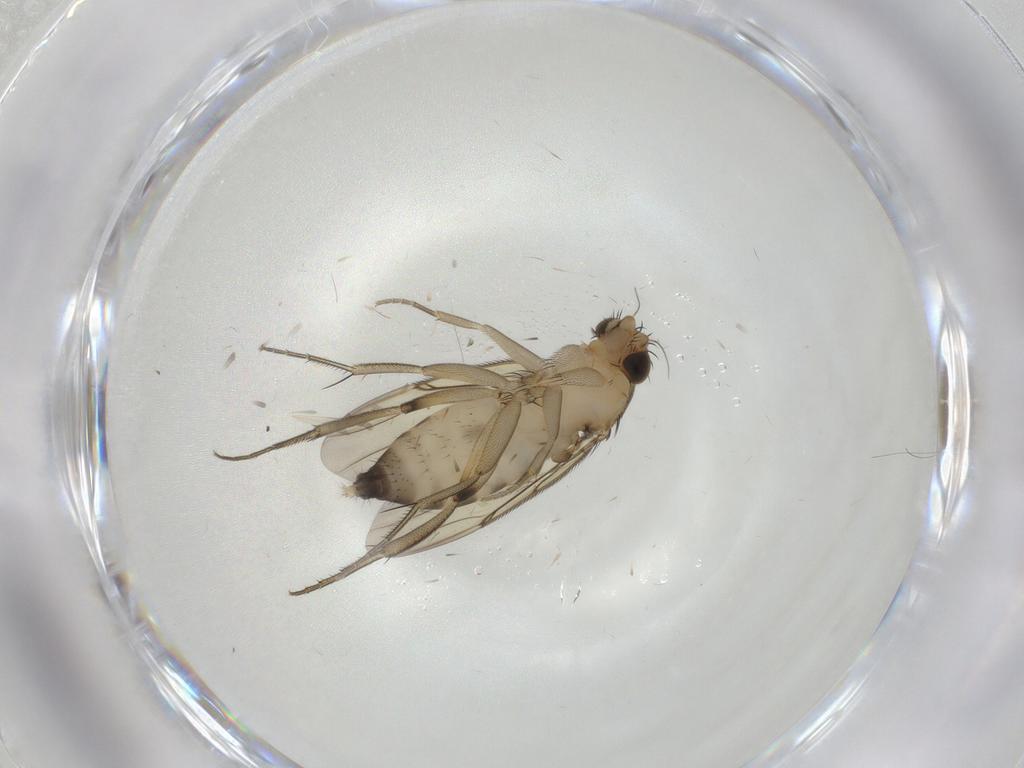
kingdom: Animalia
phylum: Arthropoda
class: Insecta
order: Diptera
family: Phoridae
